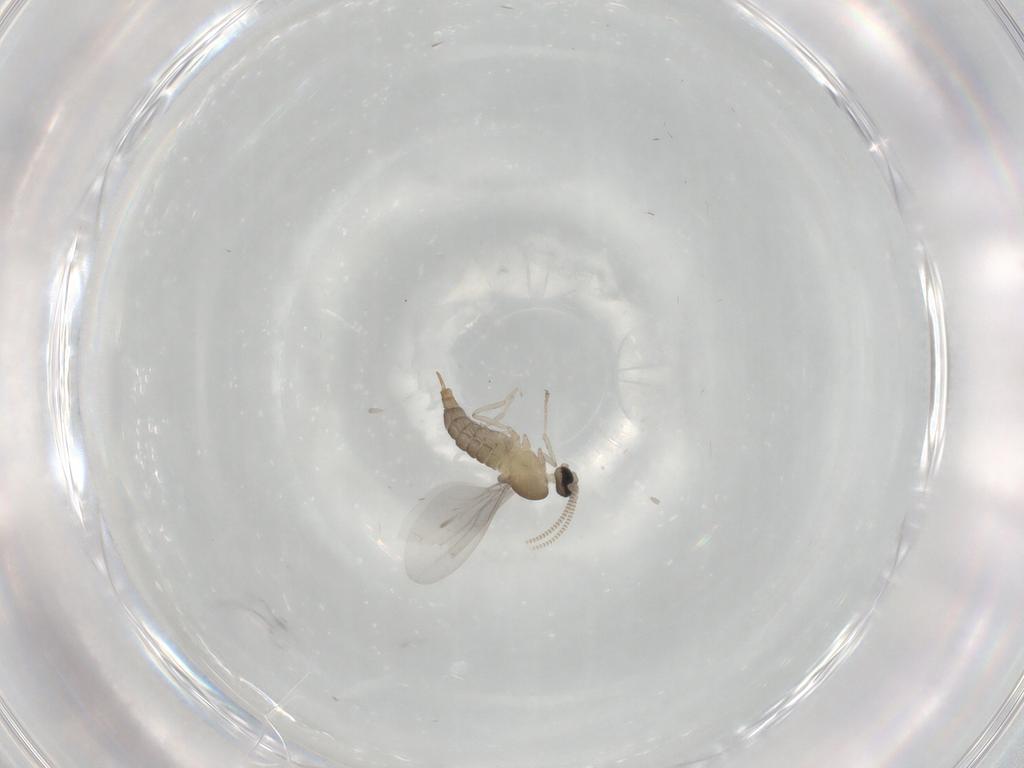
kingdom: Animalia
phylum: Arthropoda
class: Insecta
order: Diptera
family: Cecidomyiidae
